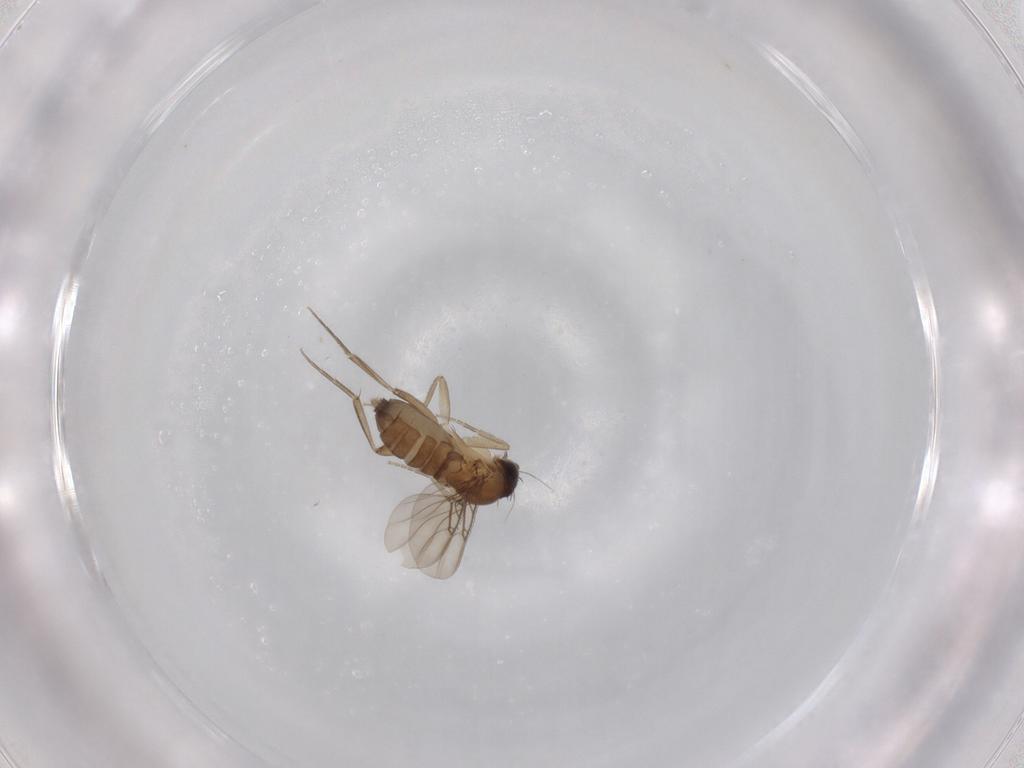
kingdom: Animalia
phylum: Arthropoda
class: Insecta
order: Diptera
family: Phoridae
